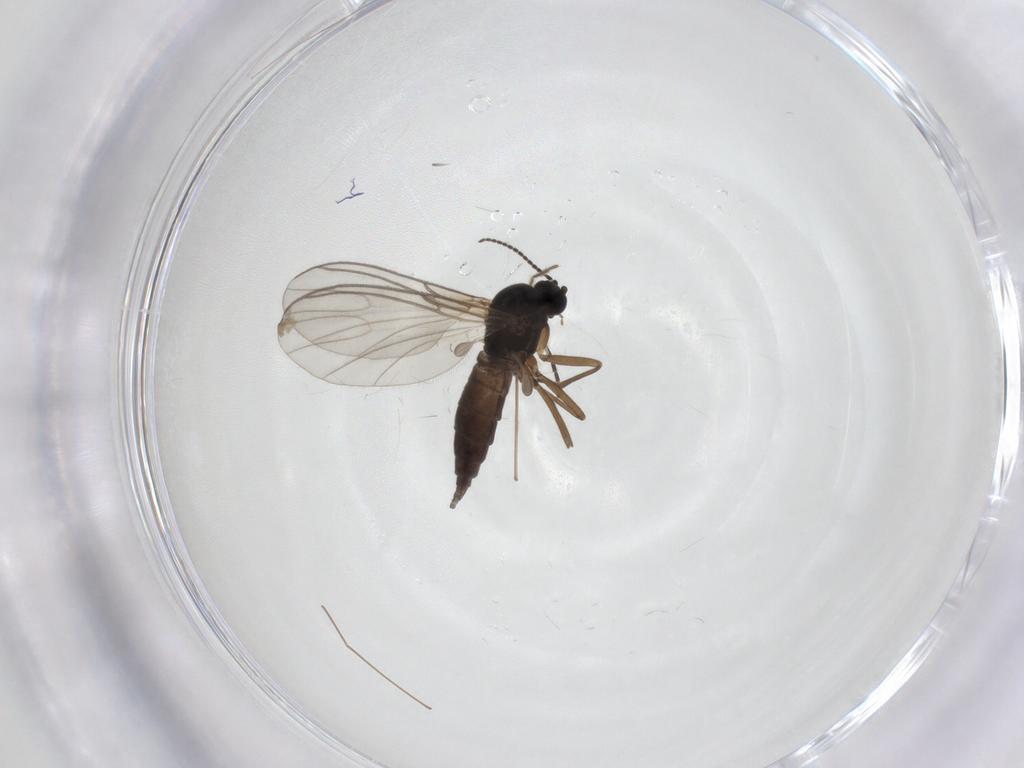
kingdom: Animalia
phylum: Arthropoda
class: Insecta
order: Diptera
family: Chironomidae
